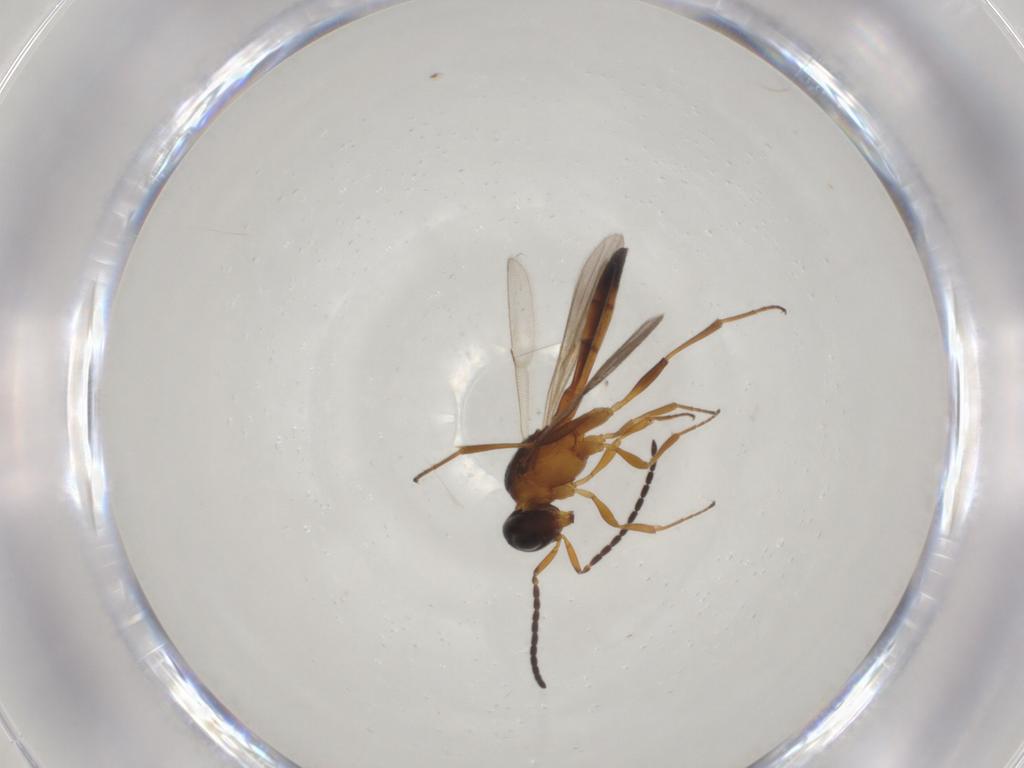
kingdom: Animalia
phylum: Arthropoda
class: Insecta
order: Hymenoptera
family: Scelionidae
